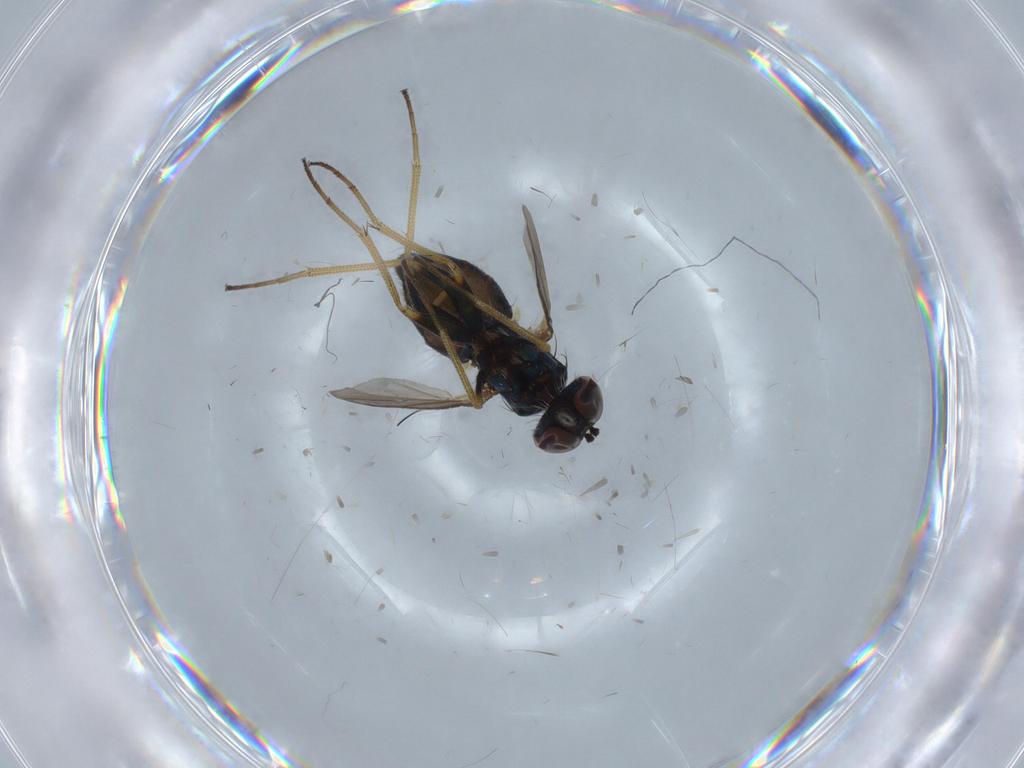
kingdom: Animalia
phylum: Arthropoda
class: Insecta
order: Diptera
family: Dolichopodidae
